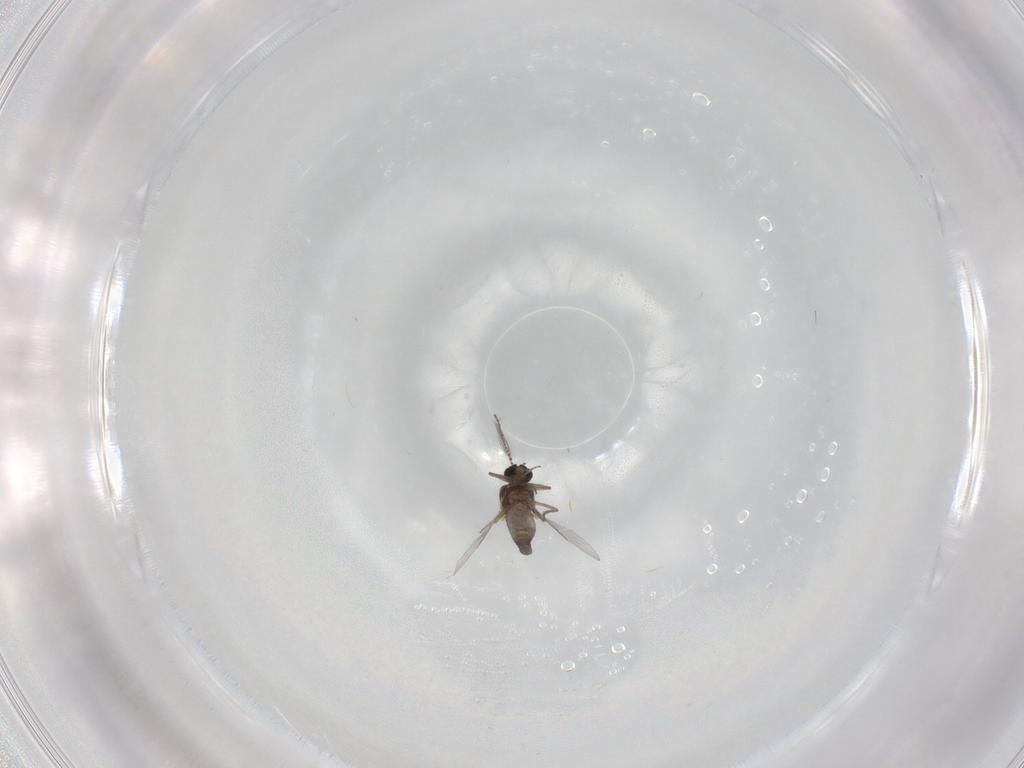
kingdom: Animalia
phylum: Arthropoda
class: Insecta
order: Diptera
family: Ceratopogonidae
